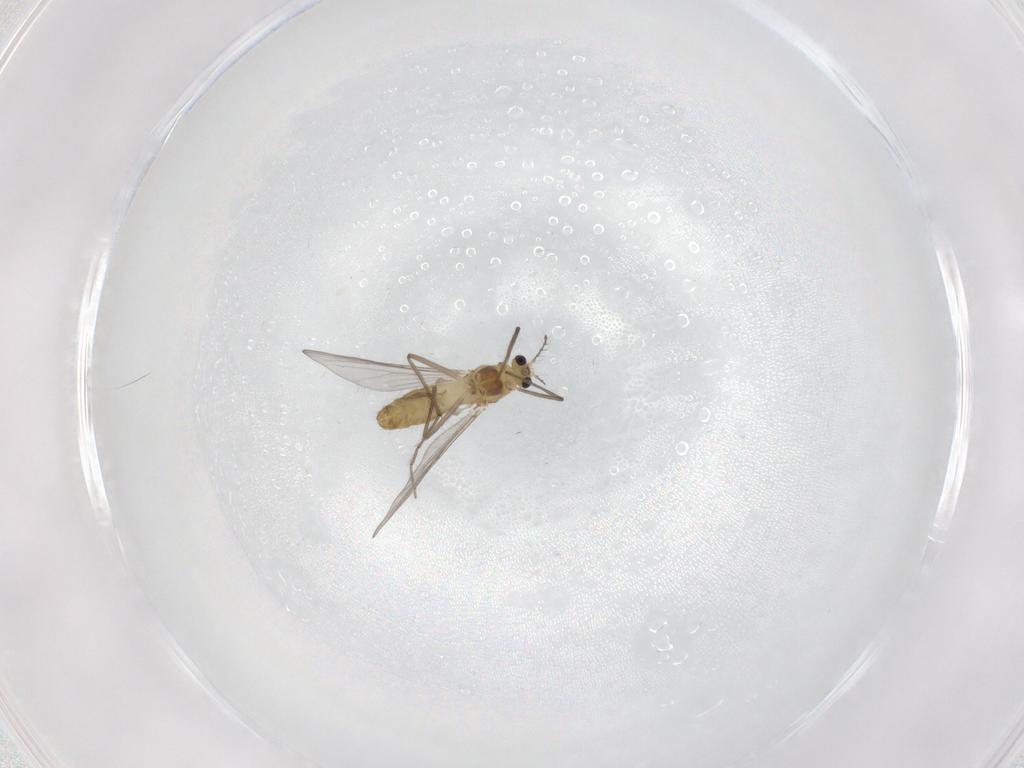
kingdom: Animalia
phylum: Arthropoda
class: Insecta
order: Diptera
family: Chironomidae
